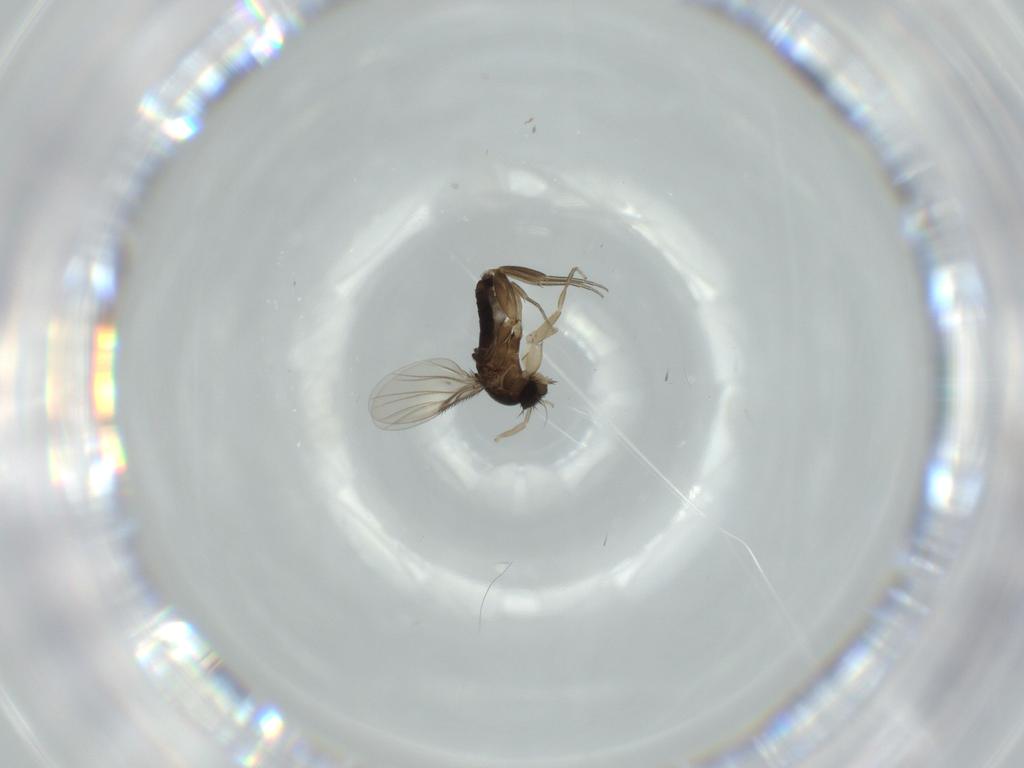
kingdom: Animalia
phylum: Arthropoda
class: Insecta
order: Diptera
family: Phoridae
